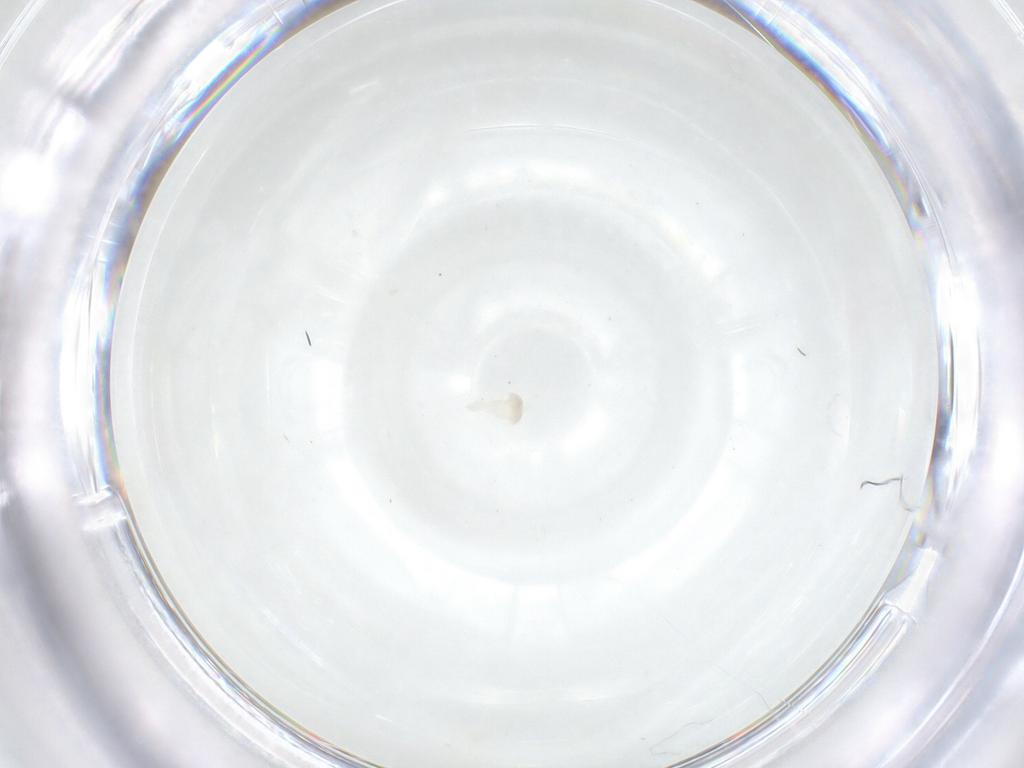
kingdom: Animalia
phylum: Arthropoda
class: Insecta
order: Hymenoptera
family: Tenthredinidae
